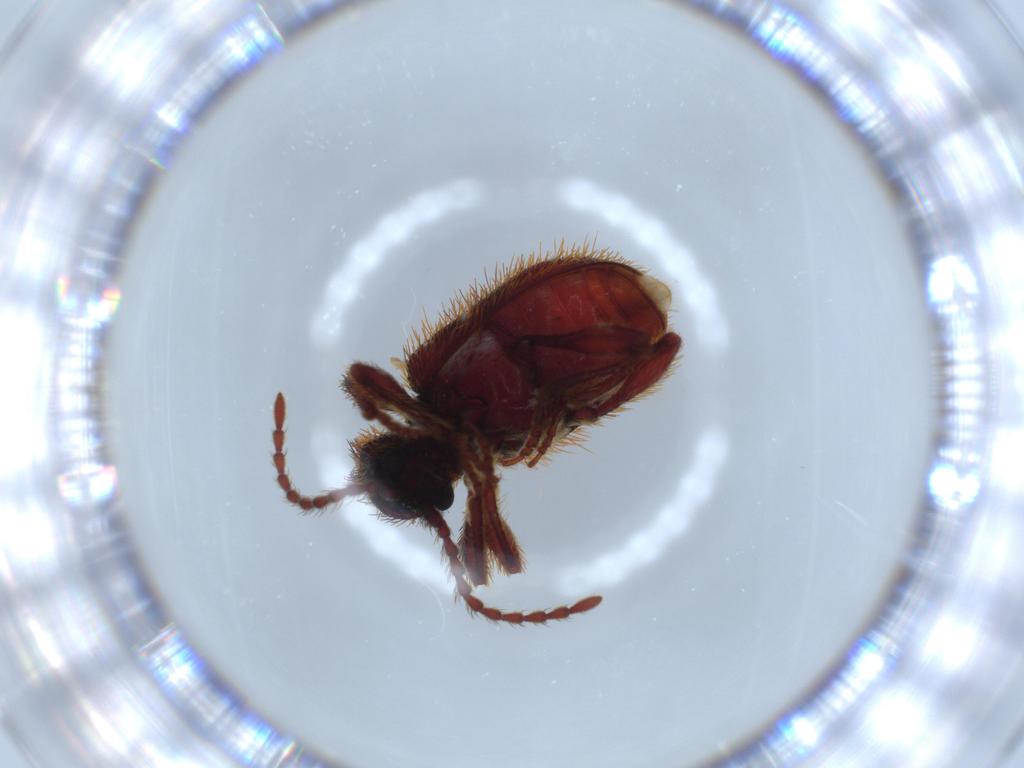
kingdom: Animalia
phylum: Arthropoda
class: Insecta
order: Coleoptera
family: Ptinidae
